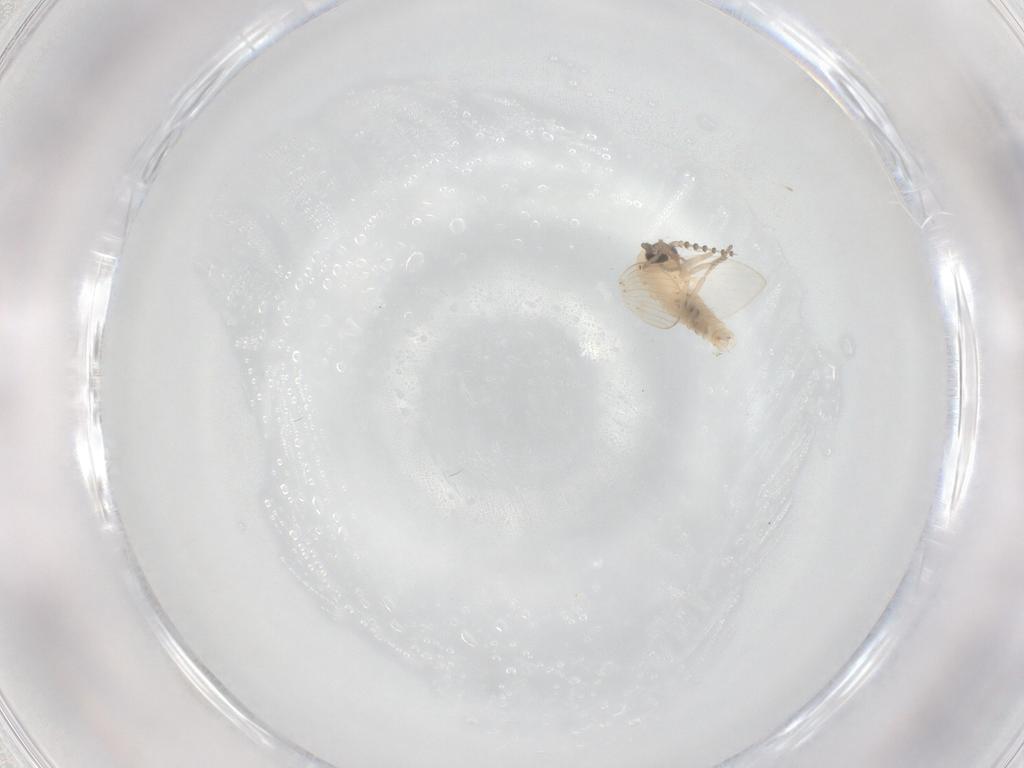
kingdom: Animalia
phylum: Arthropoda
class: Insecta
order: Diptera
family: Psychodidae
